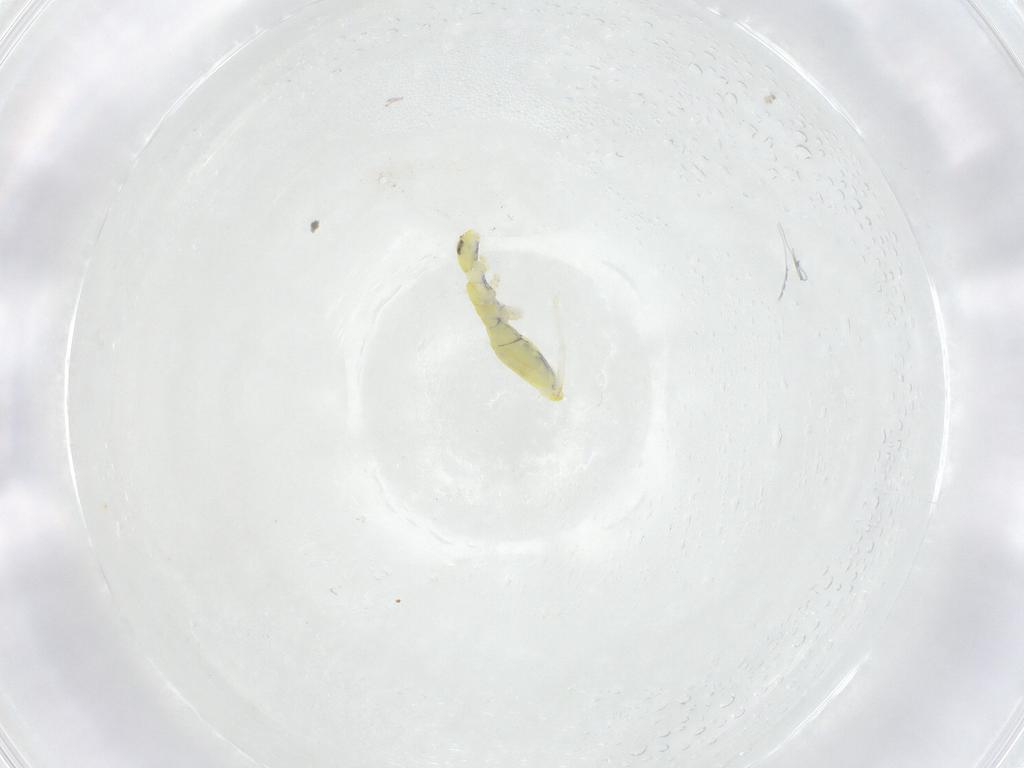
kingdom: Animalia
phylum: Arthropoda
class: Collembola
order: Entomobryomorpha
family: Paronellidae
